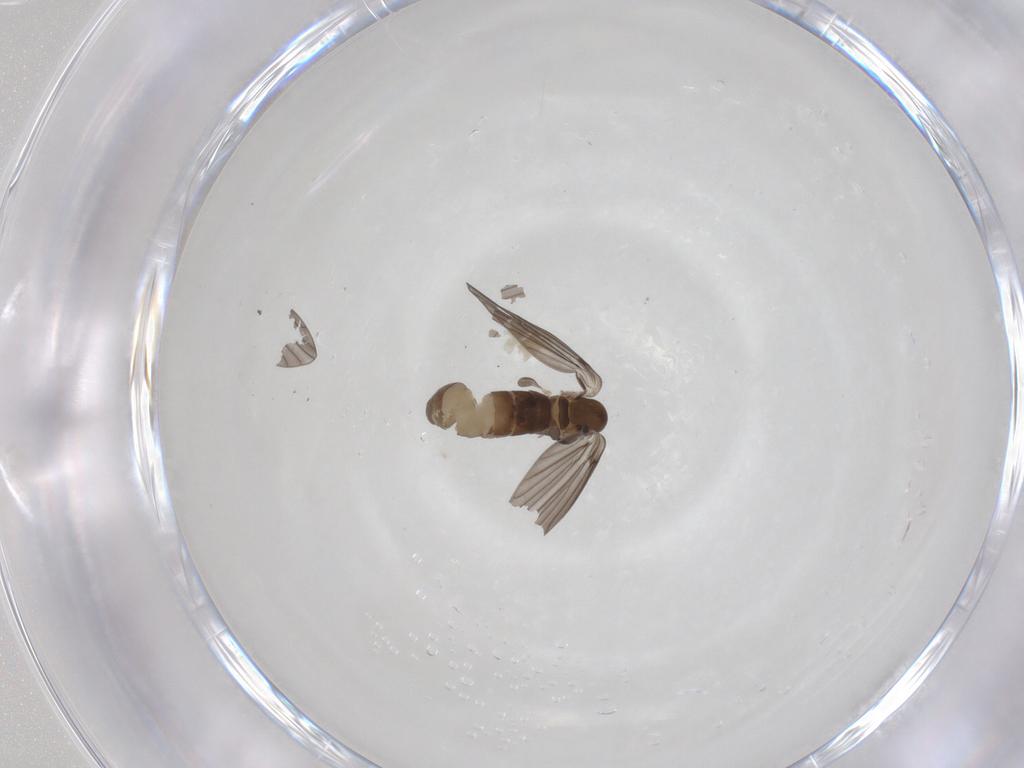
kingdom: Animalia
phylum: Arthropoda
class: Insecta
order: Diptera
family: Psychodidae
